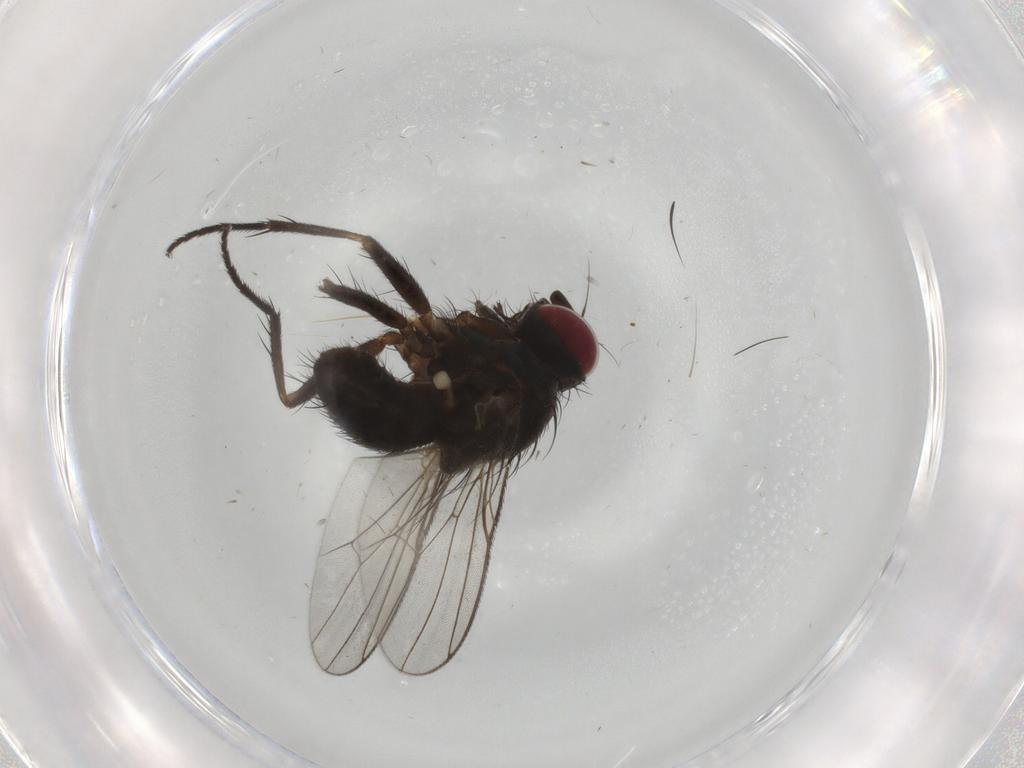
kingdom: Animalia
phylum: Arthropoda
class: Insecta
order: Diptera
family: Muscidae
